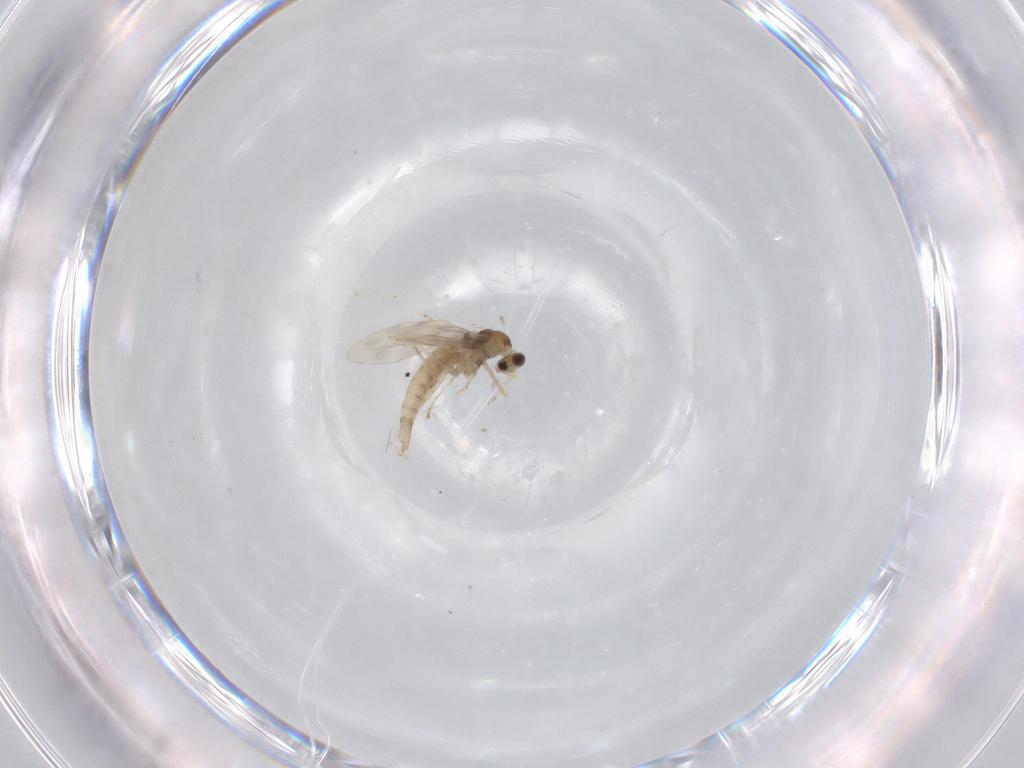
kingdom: Animalia
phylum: Arthropoda
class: Insecta
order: Diptera
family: Cecidomyiidae
